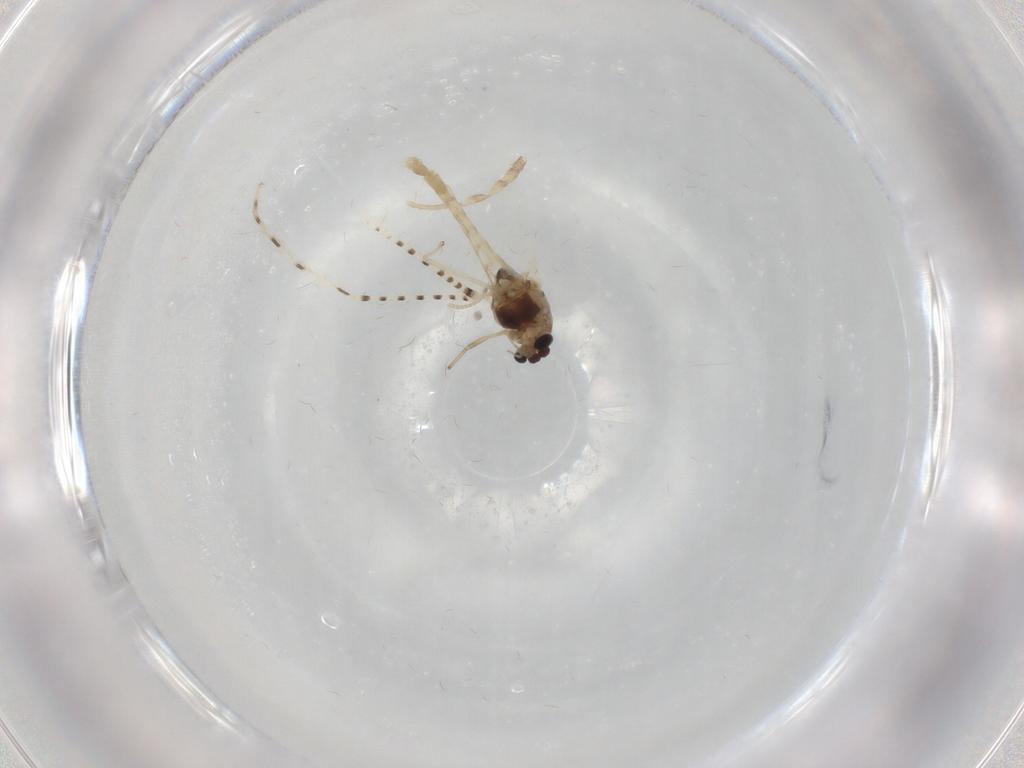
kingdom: Animalia
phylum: Arthropoda
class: Insecta
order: Diptera
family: Chironomidae
